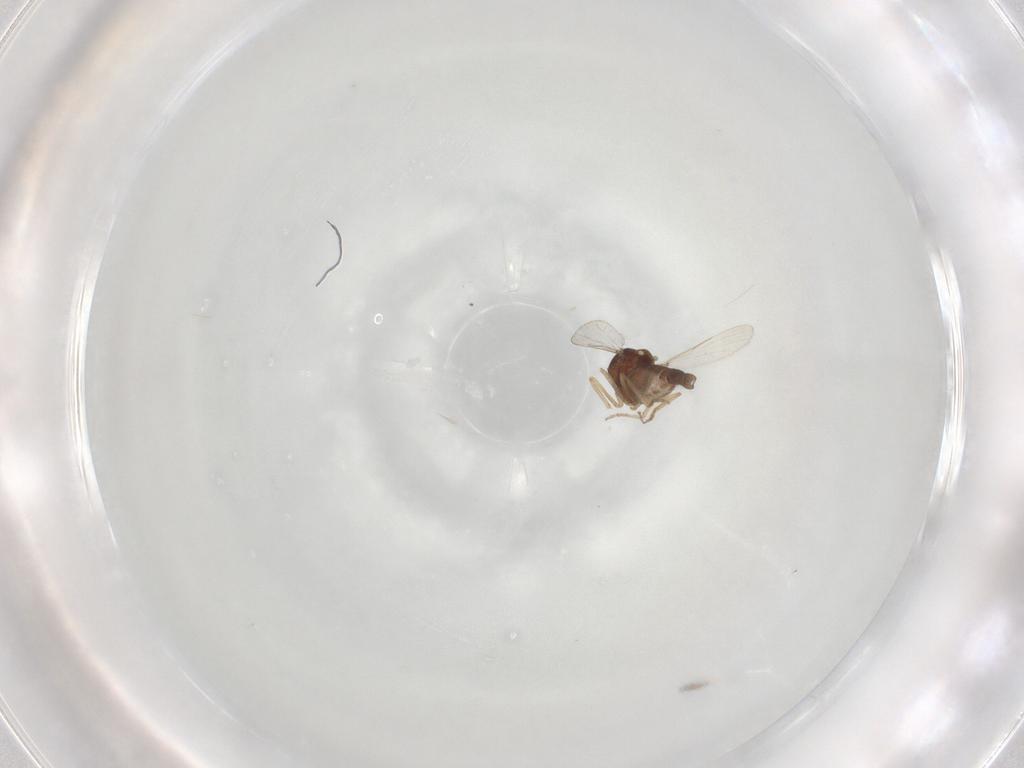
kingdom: Animalia
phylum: Arthropoda
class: Insecta
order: Diptera
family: Ceratopogonidae
